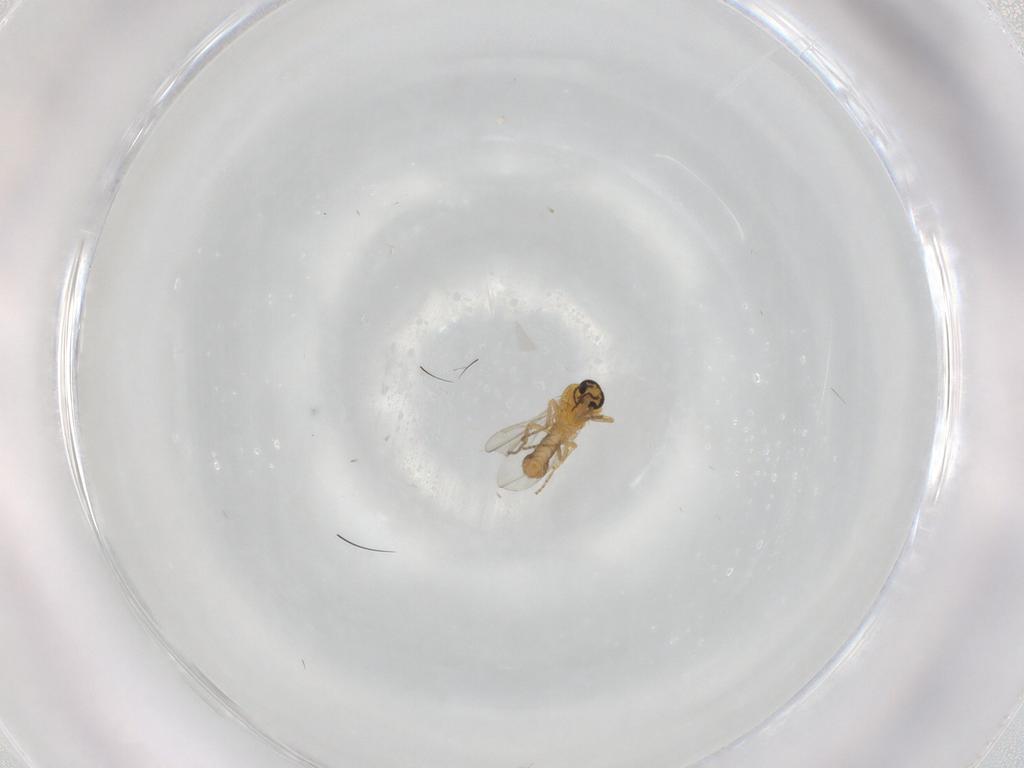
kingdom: Animalia
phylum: Arthropoda
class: Insecta
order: Diptera
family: Ceratopogonidae
